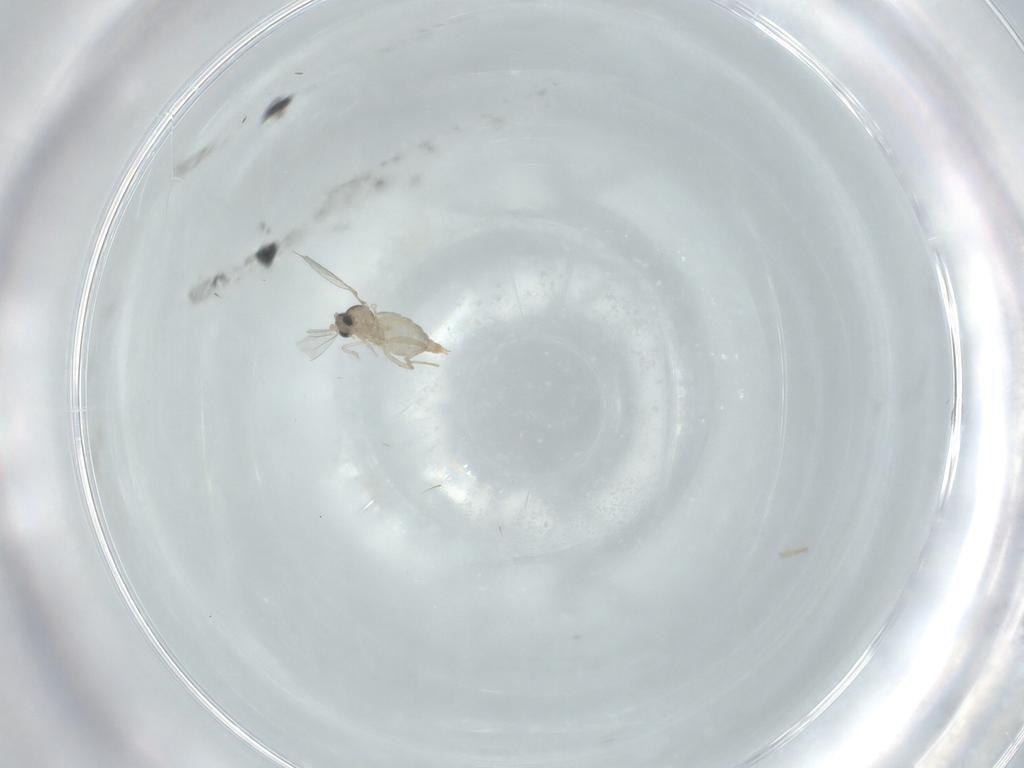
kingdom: Animalia
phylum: Arthropoda
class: Insecta
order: Diptera
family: Cecidomyiidae
